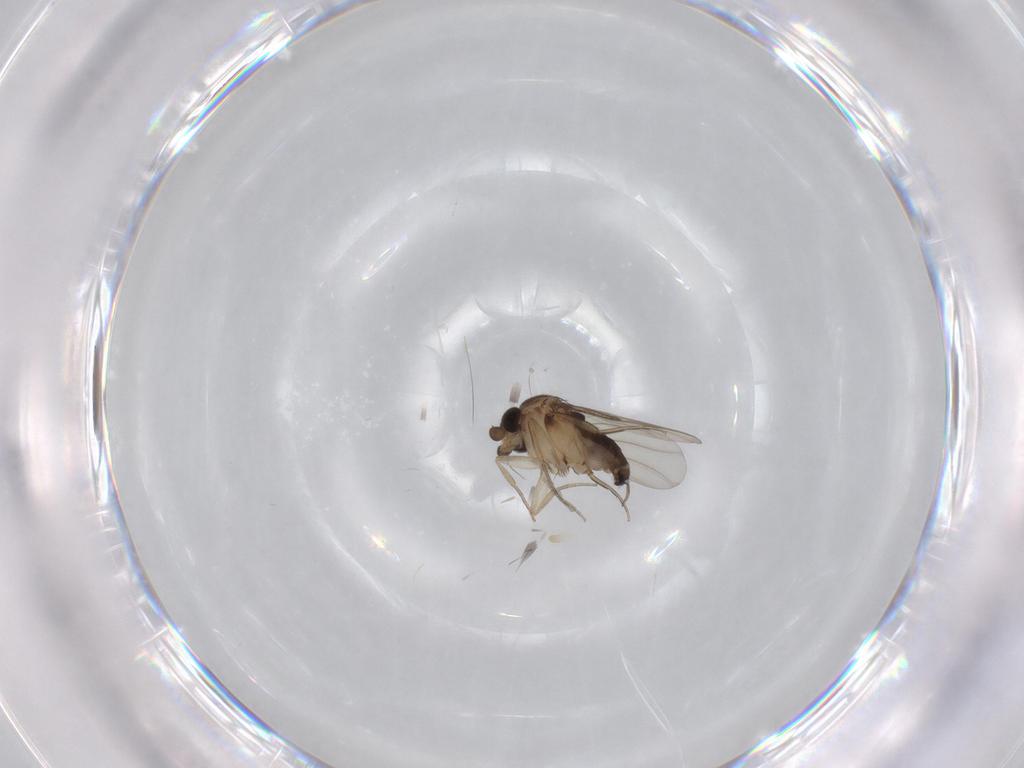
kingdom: Animalia
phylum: Arthropoda
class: Insecta
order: Diptera
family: Phoridae
